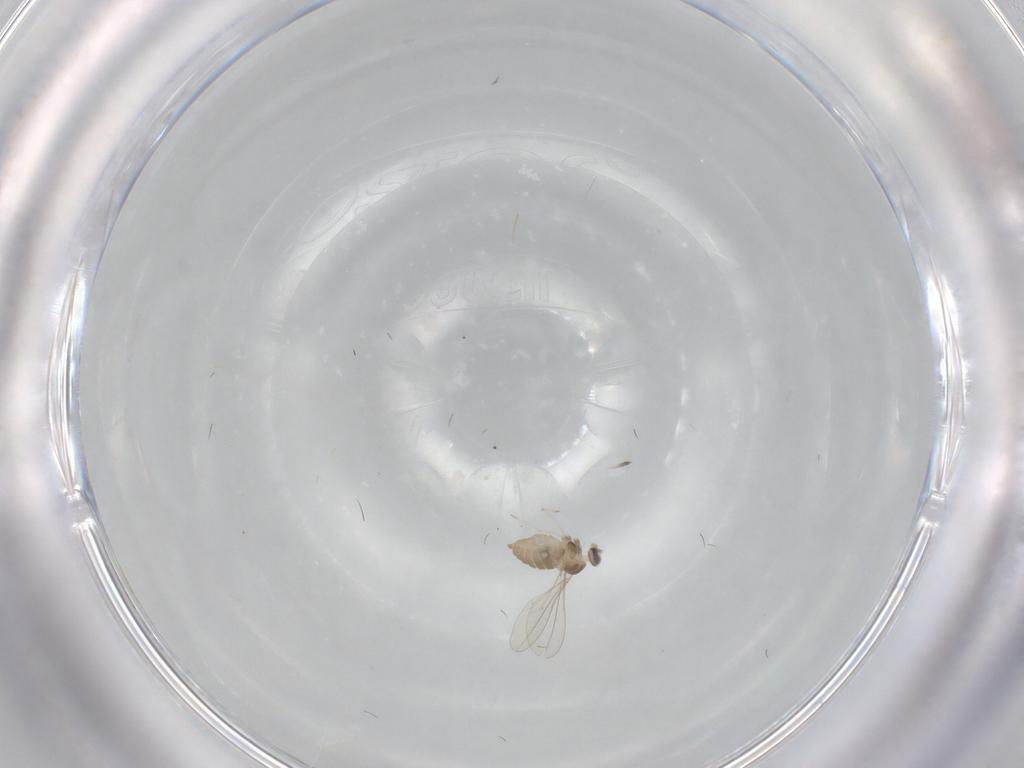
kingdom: Animalia
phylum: Arthropoda
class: Insecta
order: Diptera
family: Cecidomyiidae
